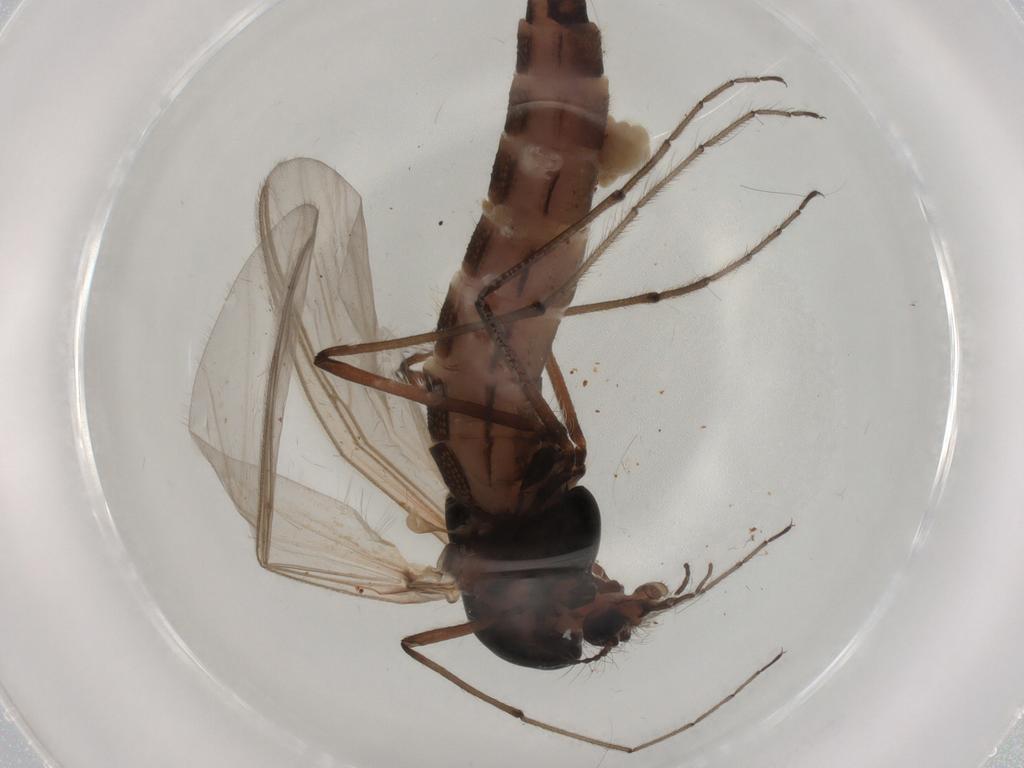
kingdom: Animalia
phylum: Arthropoda
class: Insecta
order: Diptera
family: Chironomidae
